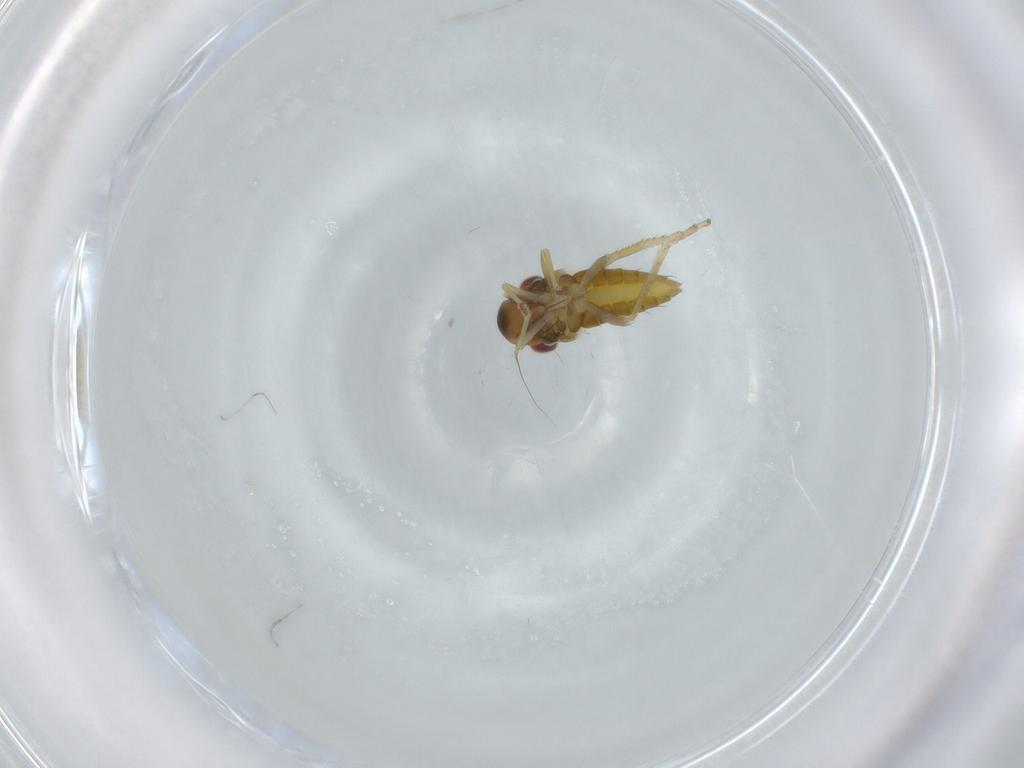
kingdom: Animalia
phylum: Arthropoda
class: Insecta
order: Hemiptera
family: Cicadellidae
